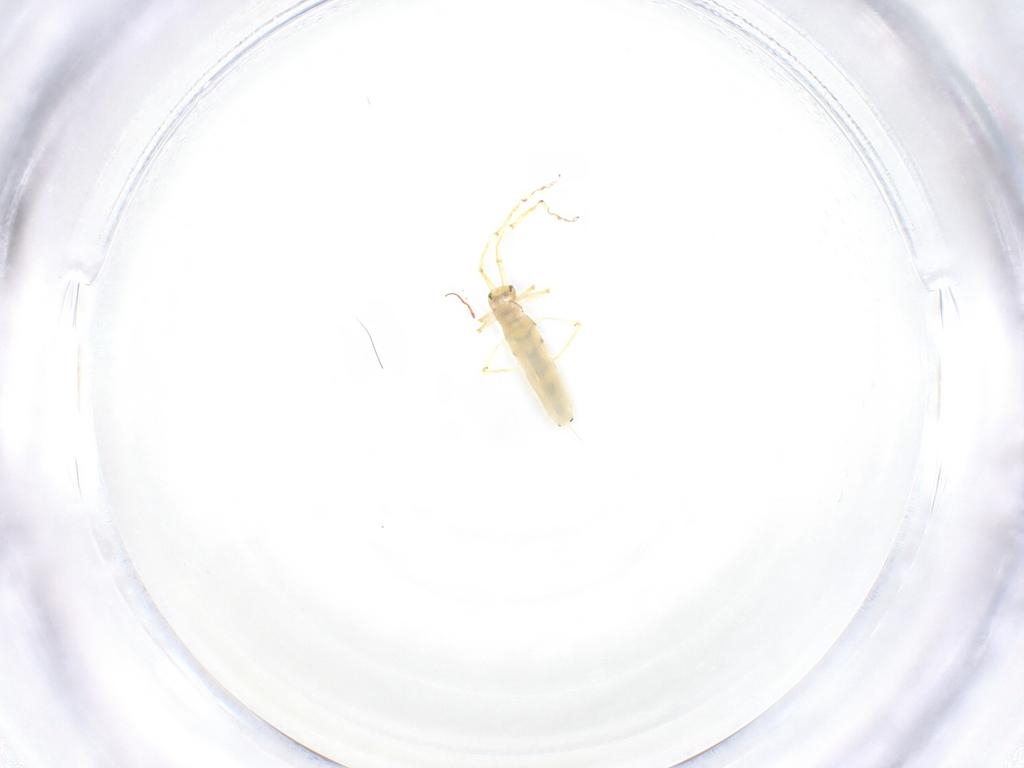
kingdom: Animalia
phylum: Arthropoda
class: Collembola
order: Entomobryomorpha
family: Entomobryidae
